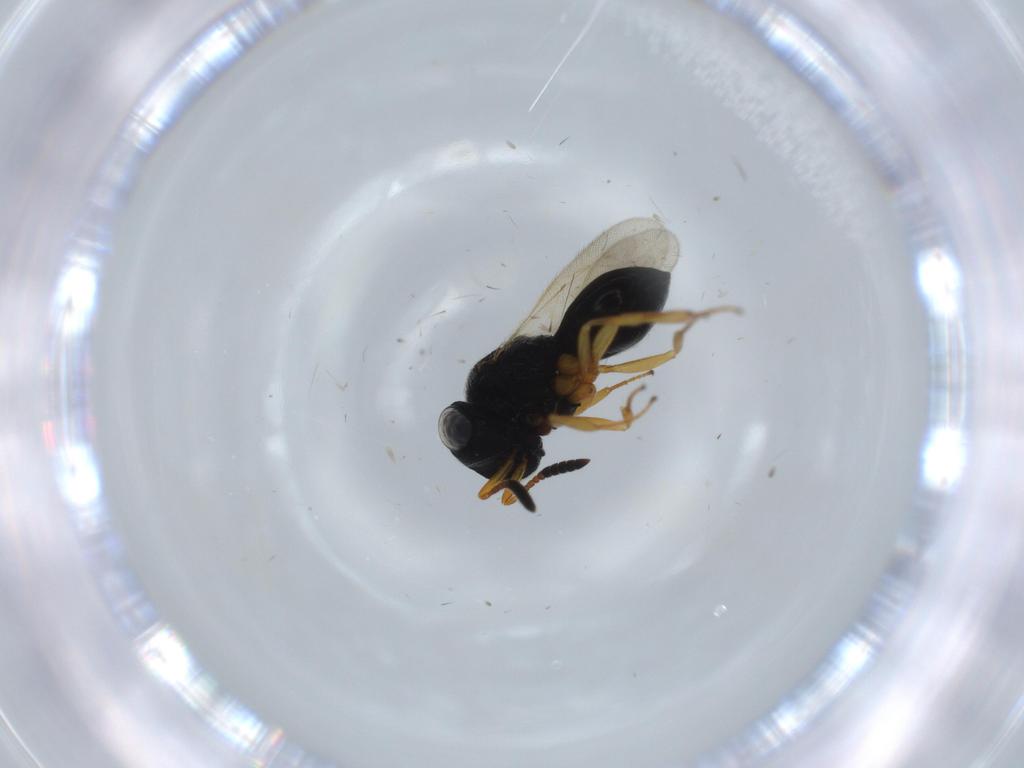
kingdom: Animalia
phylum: Arthropoda
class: Insecta
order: Hymenoptera
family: Scelionidae
